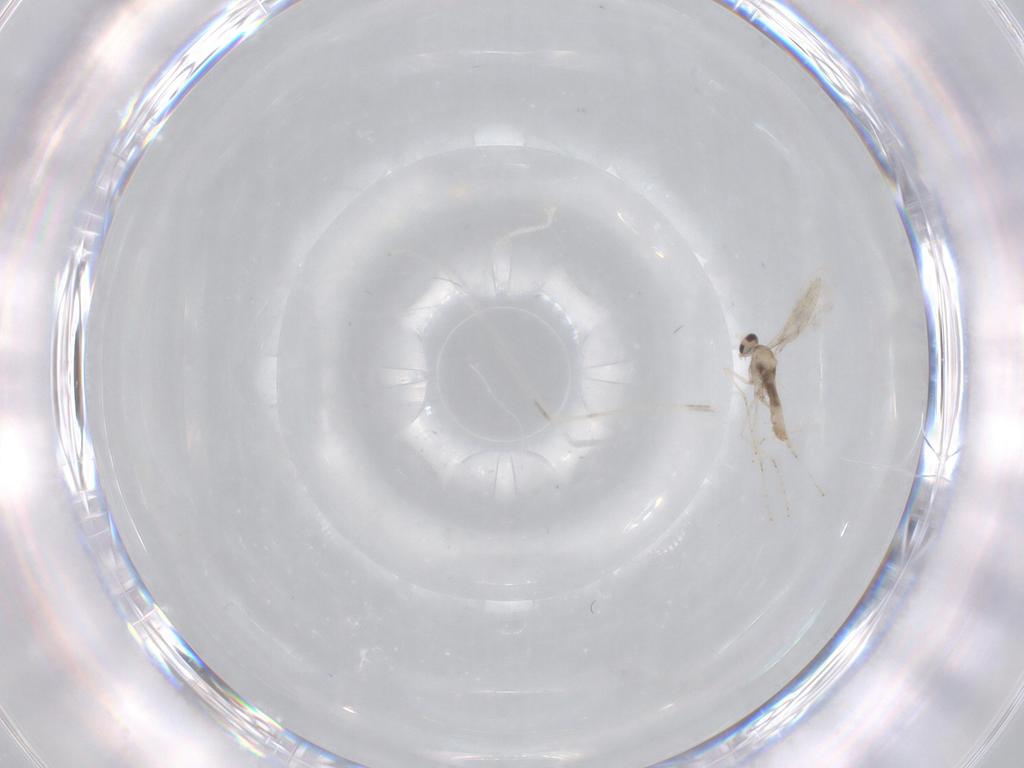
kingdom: Animalia
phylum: Arthropoda
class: Insecta
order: Diptera
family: Cecidomyiidae
